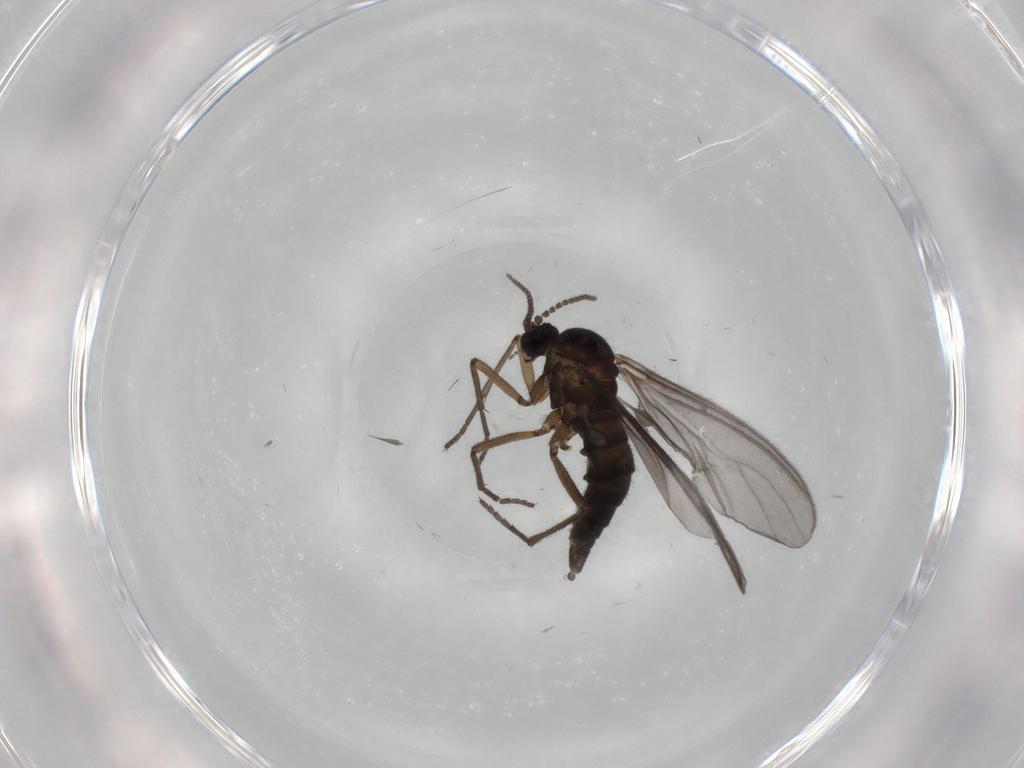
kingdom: Animalia
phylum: Arthropoda
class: Insecta
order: Diptera
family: Sciaridae
